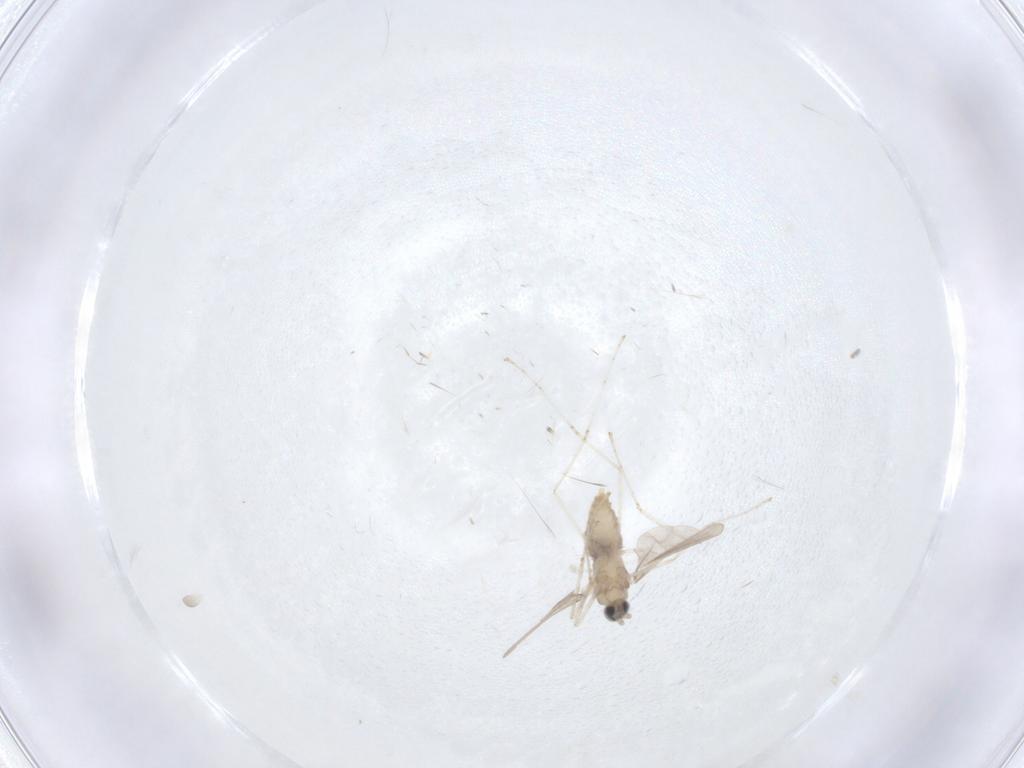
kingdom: Animalia
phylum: Arthropoda
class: Insecta
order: Diptera
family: Cecidomyiidae
